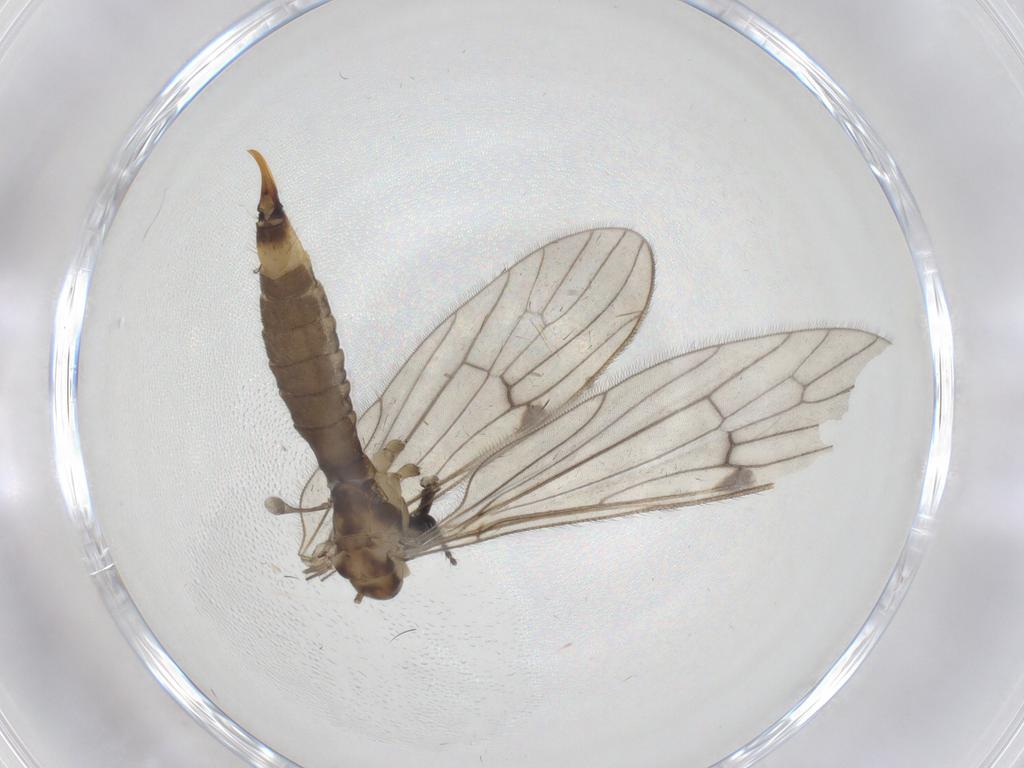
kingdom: Animalia
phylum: Arthropoda
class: Insecta
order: Diptera
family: Limoniidae
